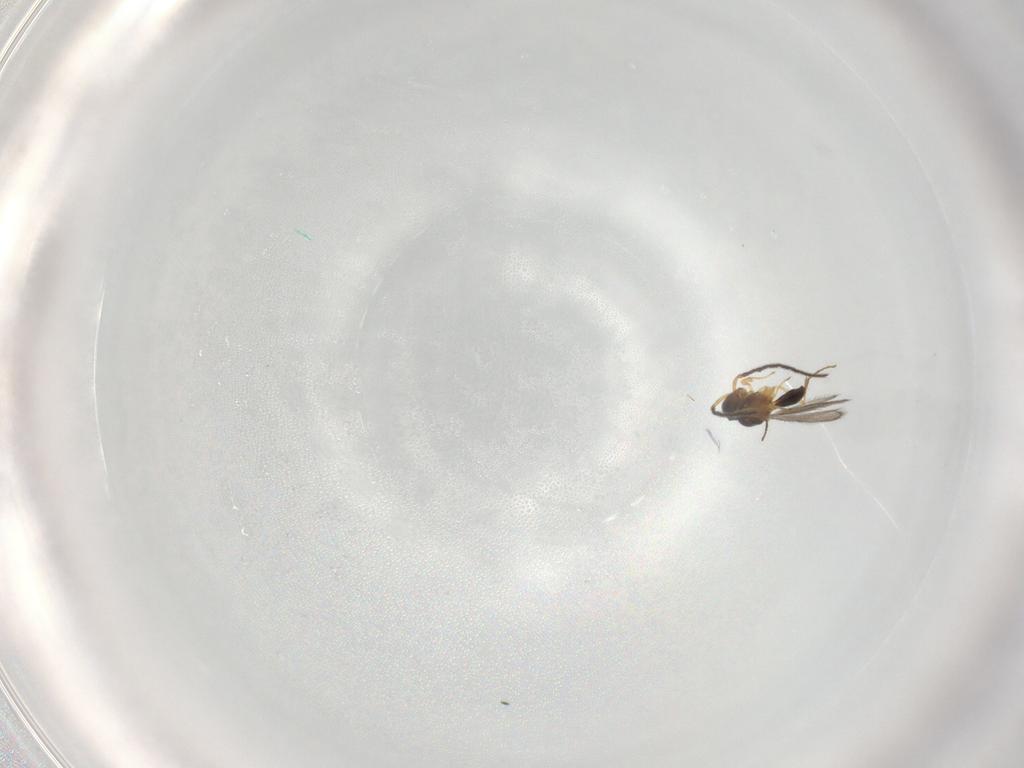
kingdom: Animalia
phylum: Arthropoda
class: Insecta
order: Hymenoptera
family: Scelionidae
